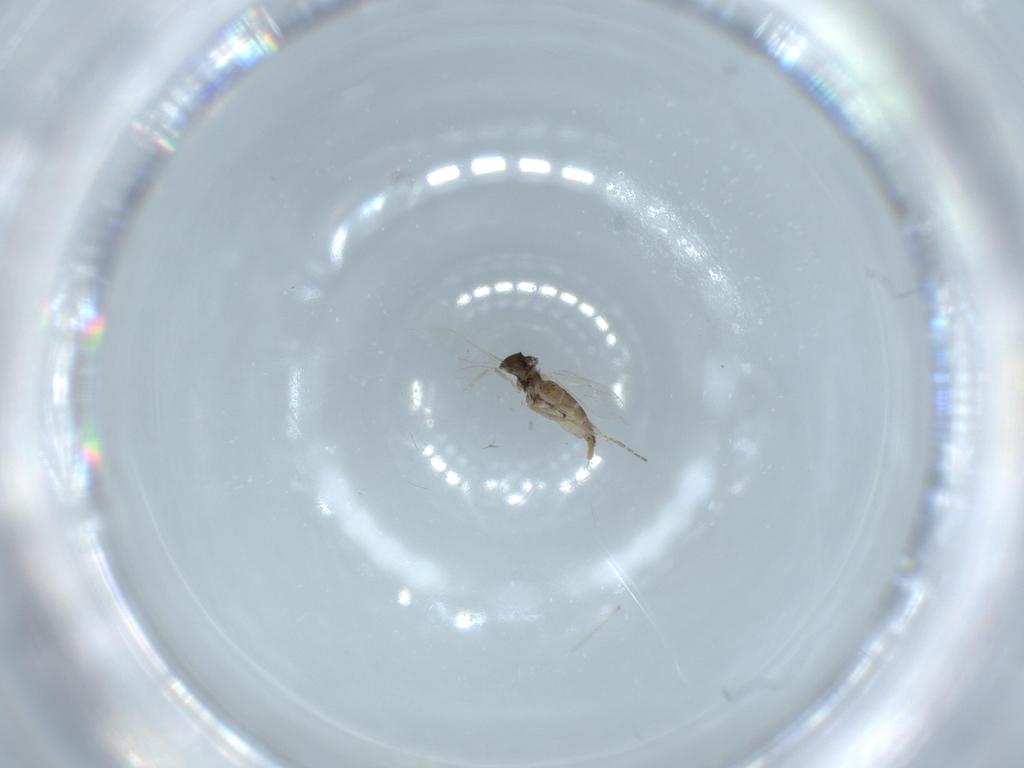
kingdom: Animalia
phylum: Arthropoda
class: Insecta
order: Diptera
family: Cecidomyiidae
